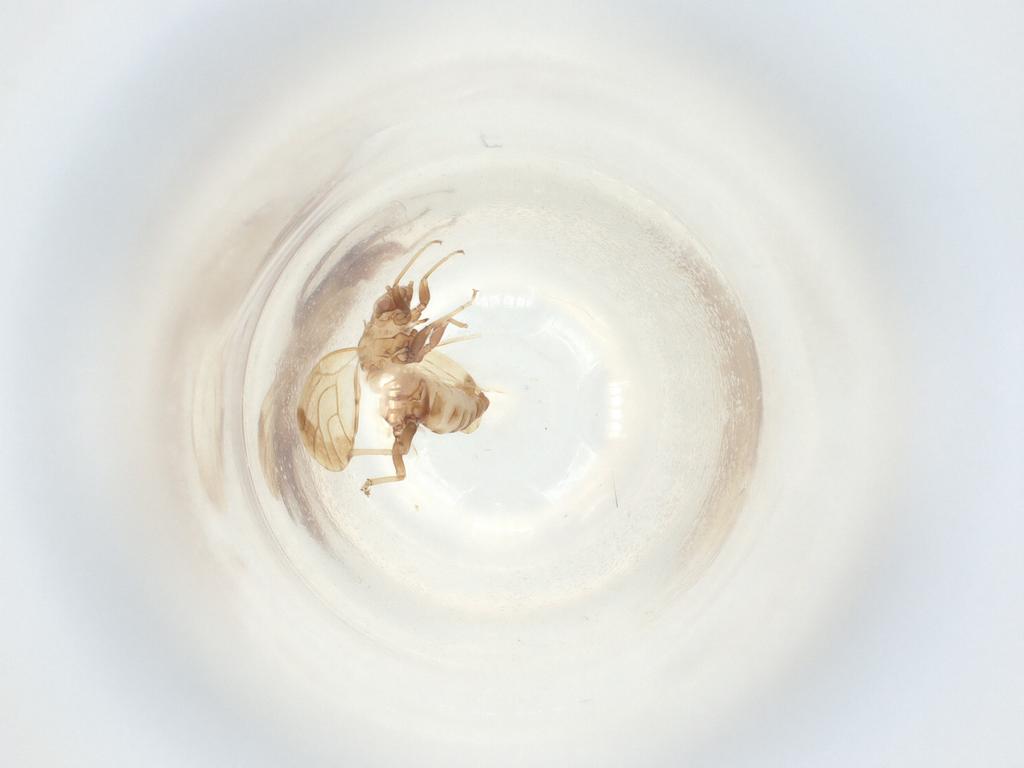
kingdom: Animalia
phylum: Arthropoda
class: Insecta
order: Hemiptera
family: Psyllidae
